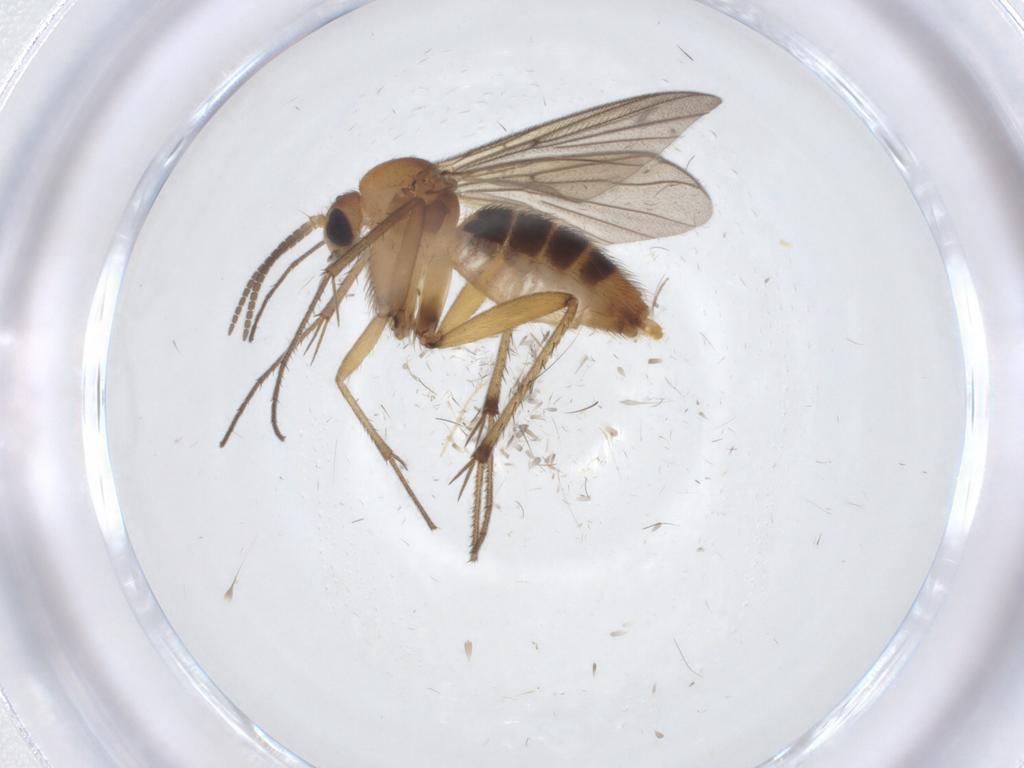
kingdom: Animalia
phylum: Arthropoda
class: Insecta
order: Diptera
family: Mycetophilidae
